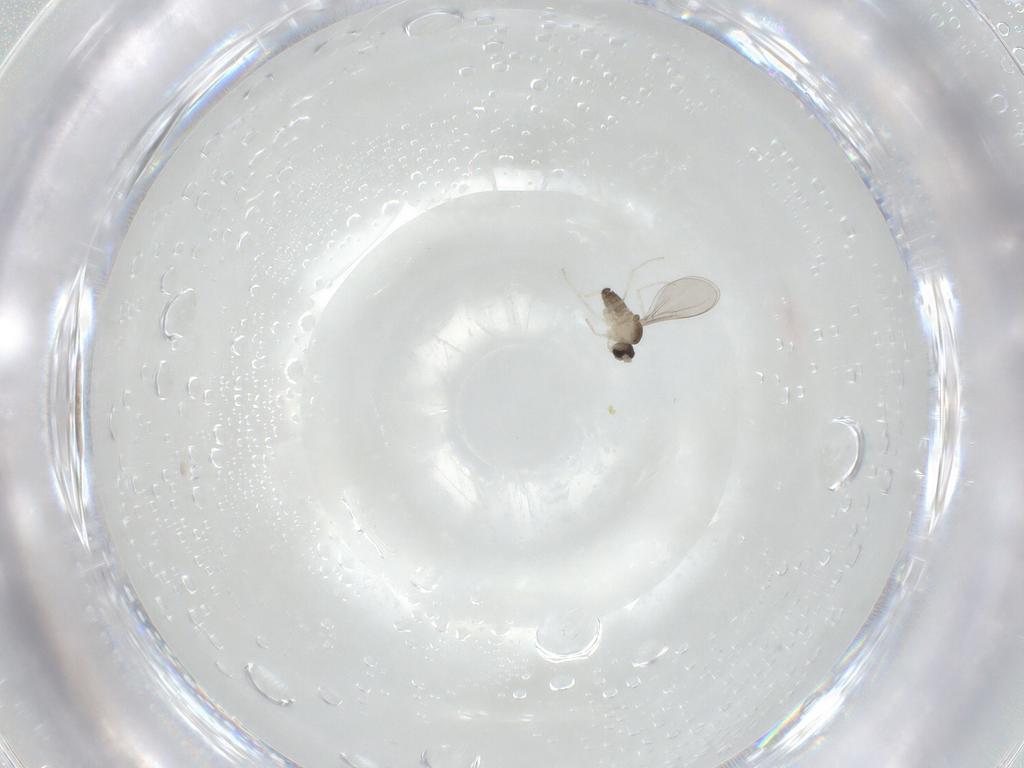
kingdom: Animalia
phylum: Arthropoda
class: Insecta
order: Diptera
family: Cecidomyiidae
